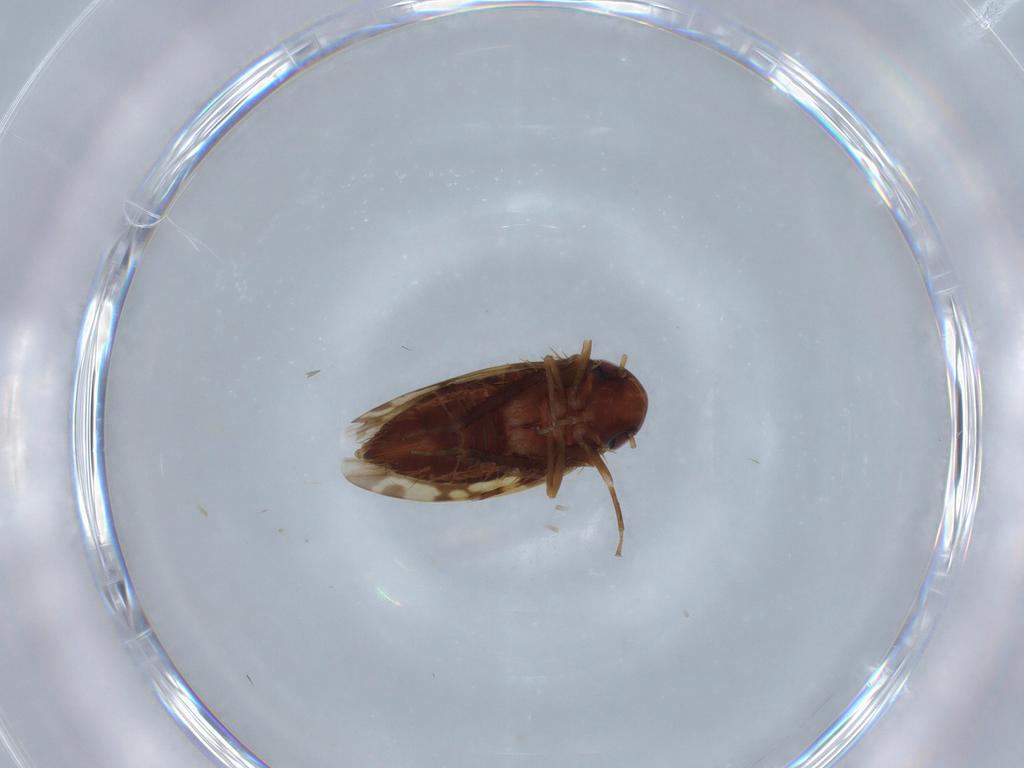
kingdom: Animalia
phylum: Arthropoda
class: Insecta
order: Hemiptera
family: Cicadellidae
